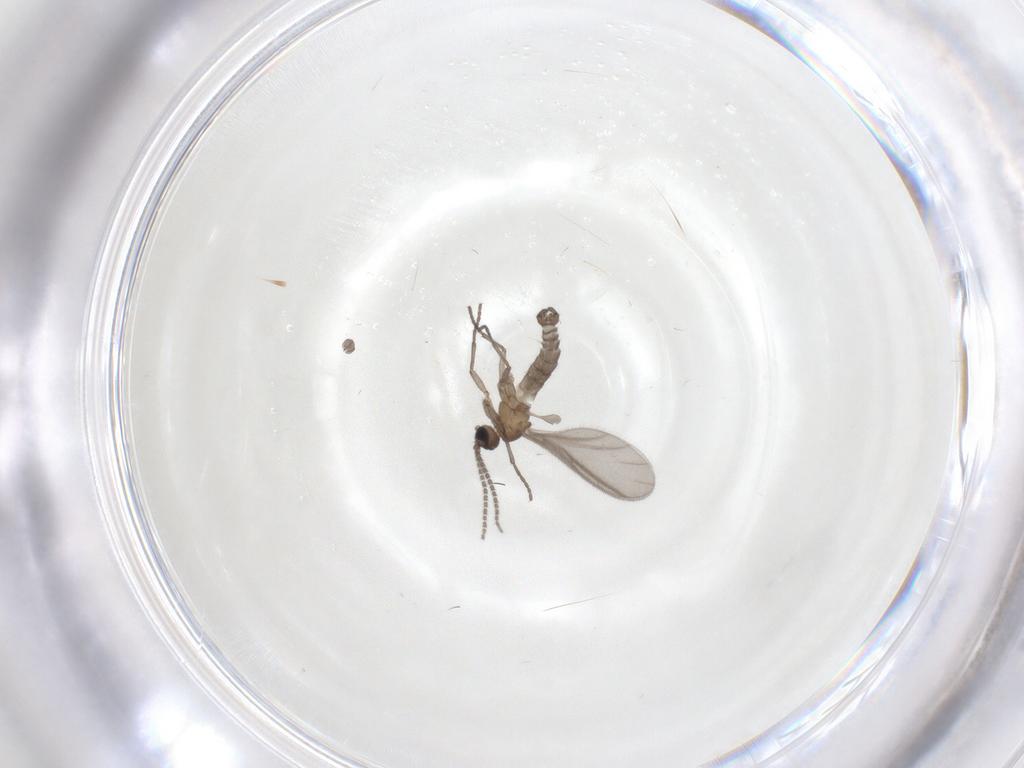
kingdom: Animalia
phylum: Arthropoda
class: Insecta
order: Diptera
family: Sciaridae
